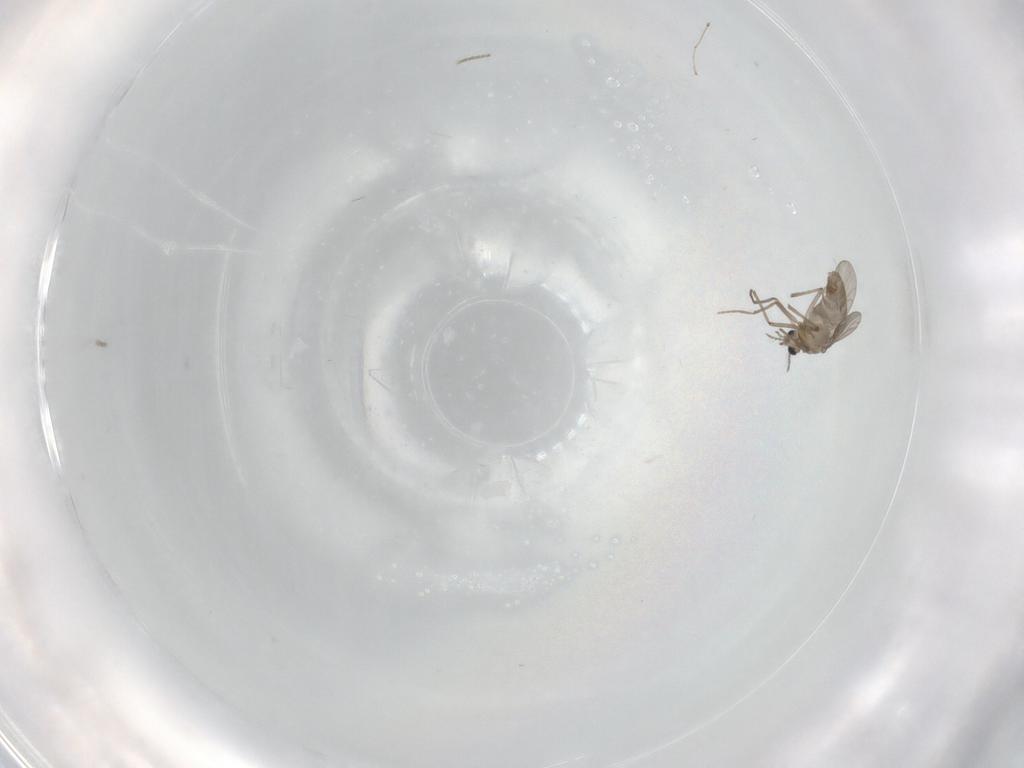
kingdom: Animalia
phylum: Arthropoda
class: Insecta
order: Diptera
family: Phoridae
